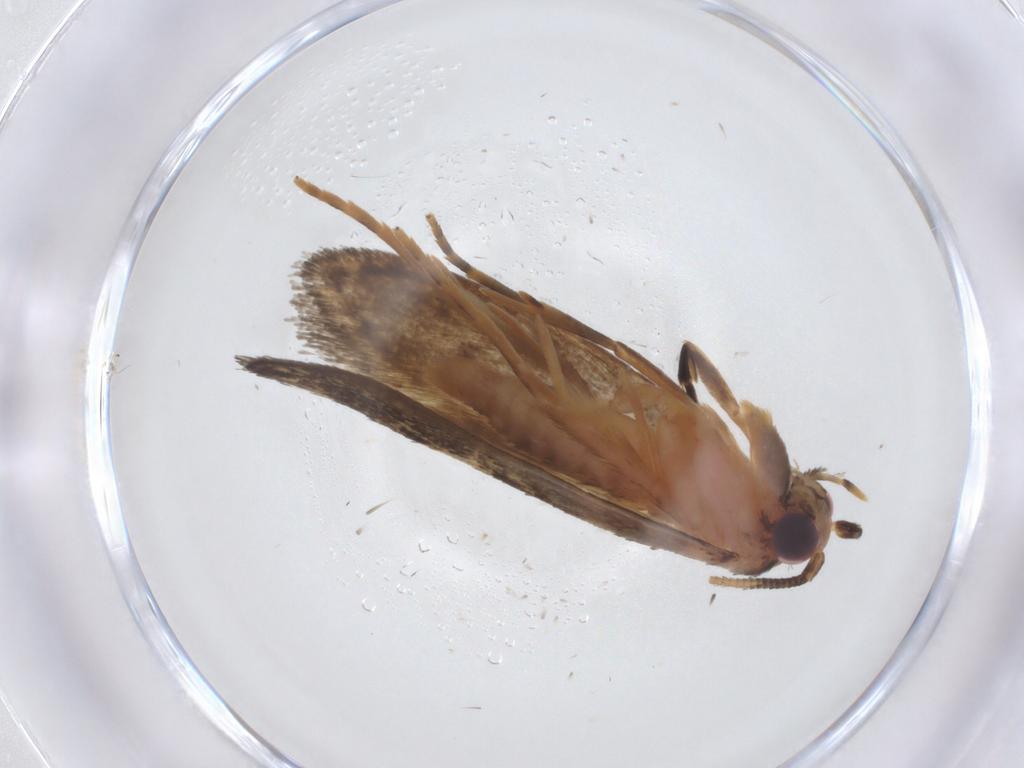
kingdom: Animalia
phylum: Arthropoda
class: Insecta
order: Lepidoptera
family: Tineidae
